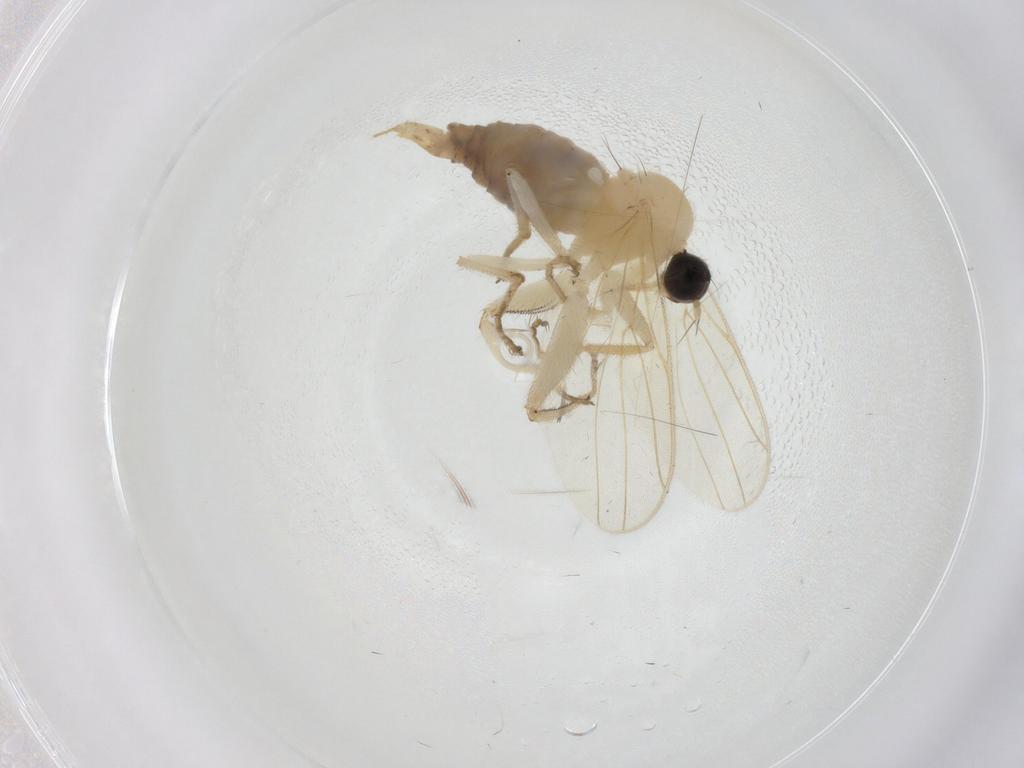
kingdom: Animalia
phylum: Arthropoda
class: Insecta
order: Diptera
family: Hybotidae
